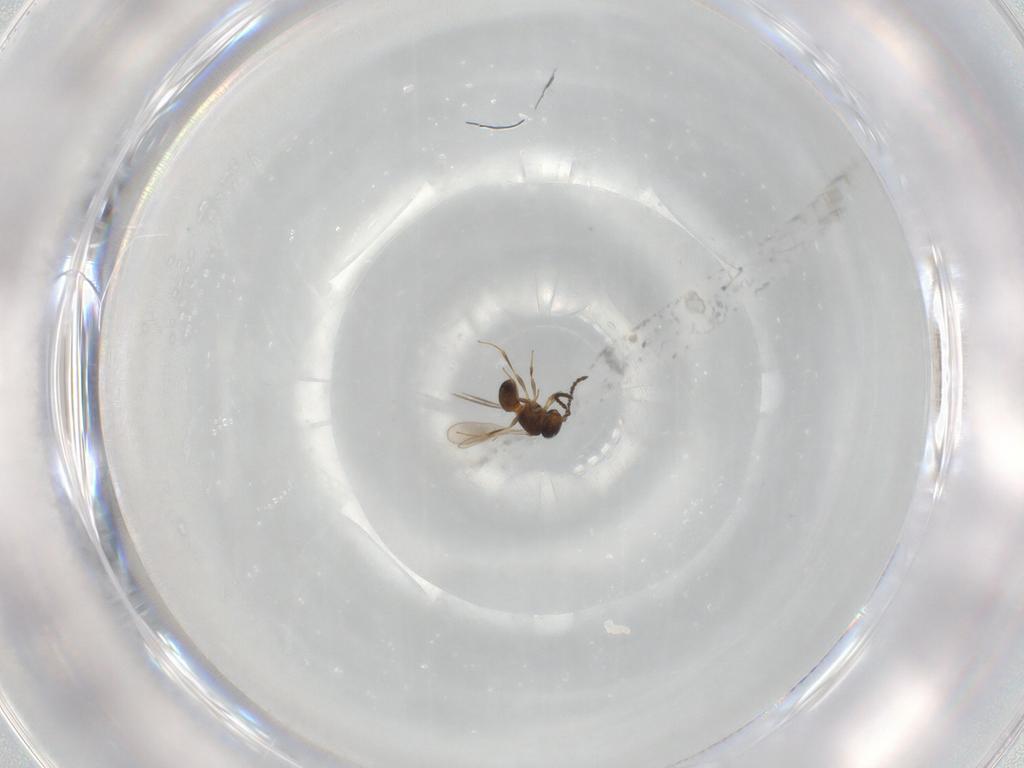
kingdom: Animalia
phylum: Arthropoda
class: Insecta
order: Hymenoptera
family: Scelionidae
